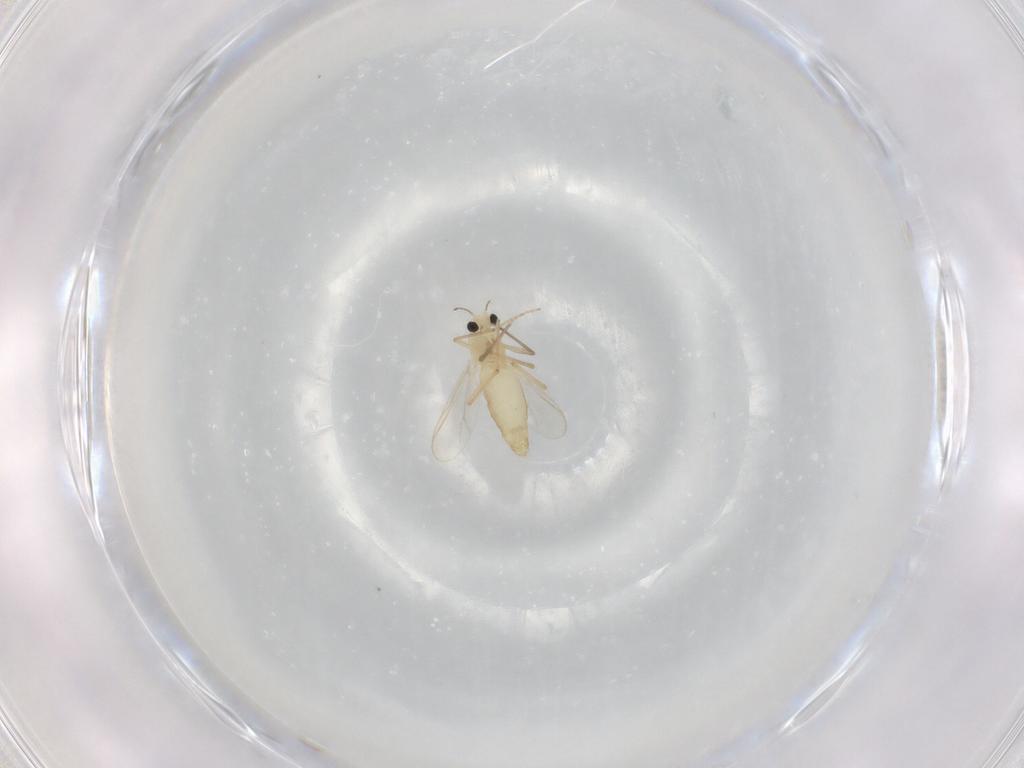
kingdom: Animalia
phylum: Arthropoda
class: Insecta
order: Diptera
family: Chironomidae
